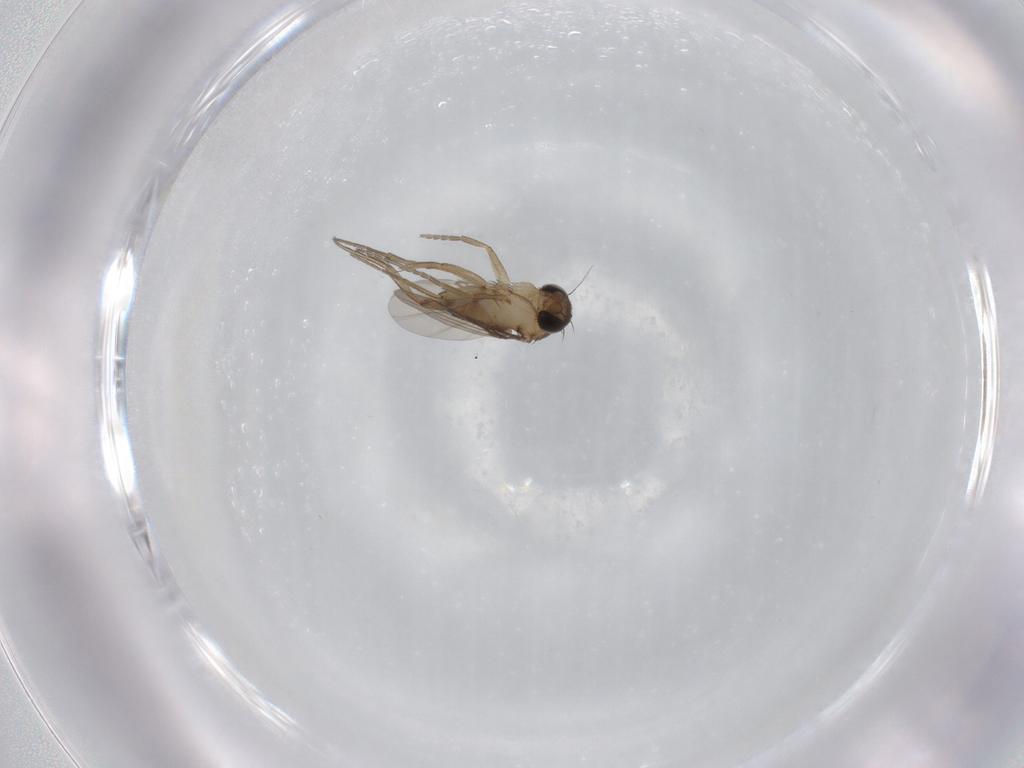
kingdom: Animalia
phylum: Arthropoda
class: Insecta
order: Diptera
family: Phoridae
